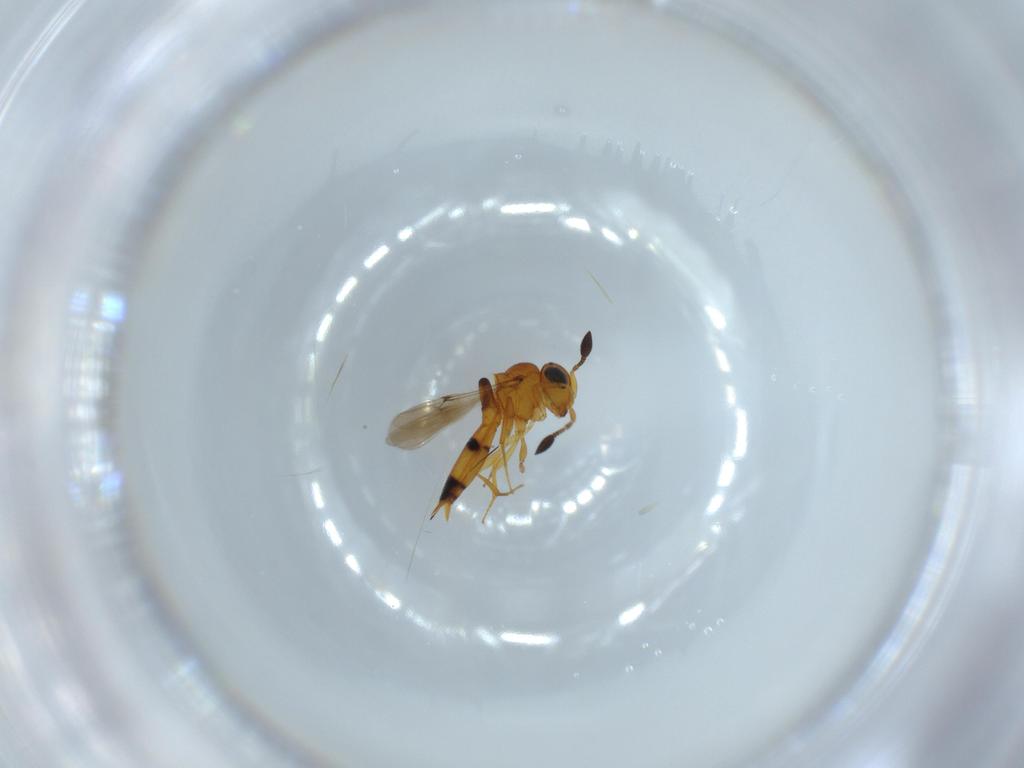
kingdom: Animalia
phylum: Arthropoda
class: Insecta
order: Hymenoptera
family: Scelionidae
